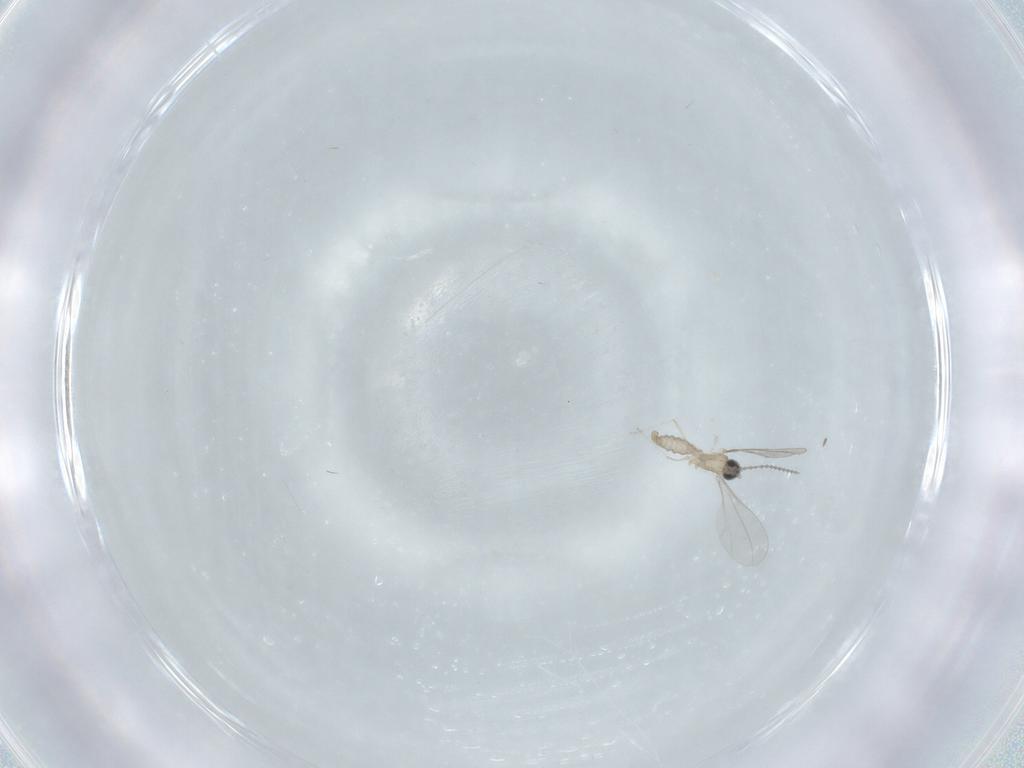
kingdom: Animalia
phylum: Arthropoda
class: Insecta
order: Diptera
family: Cecidomyiidae
